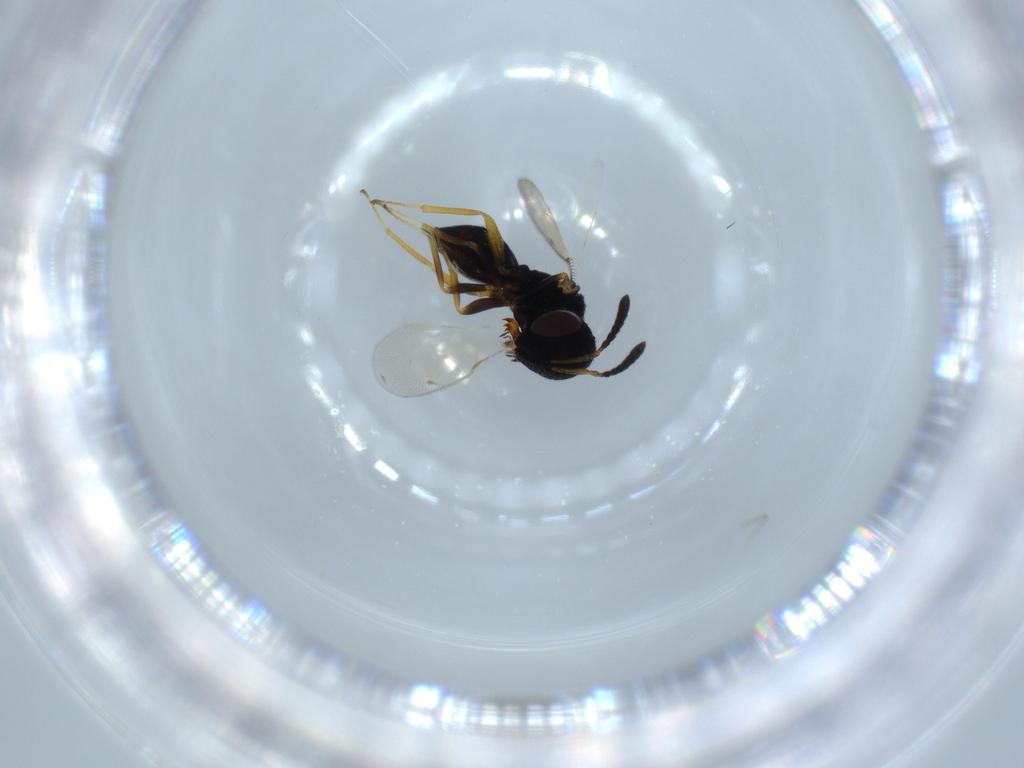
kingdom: Animalia
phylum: Arthropoda
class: Insecta
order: Hymenoptera
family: Pteromalidae
